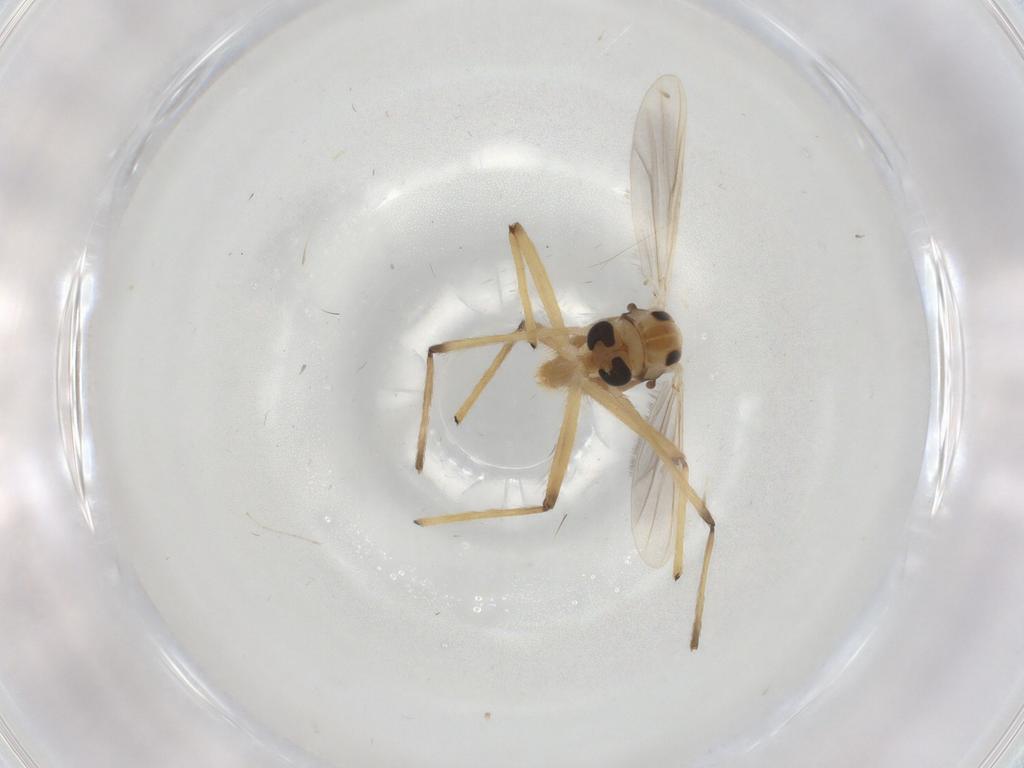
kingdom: Animalia
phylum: Arthropoda
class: Insecta
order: Diptera
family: Chironomidae
